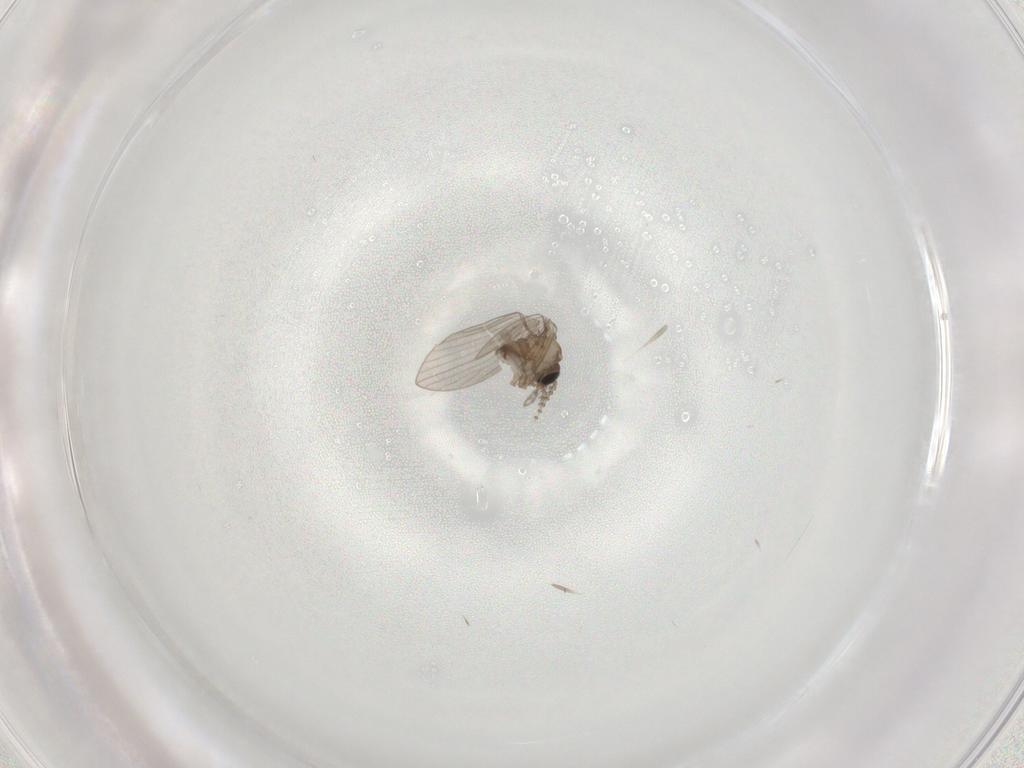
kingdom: Animalia
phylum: Arthropoda
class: Insecta
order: Diptera
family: Psychodidae
